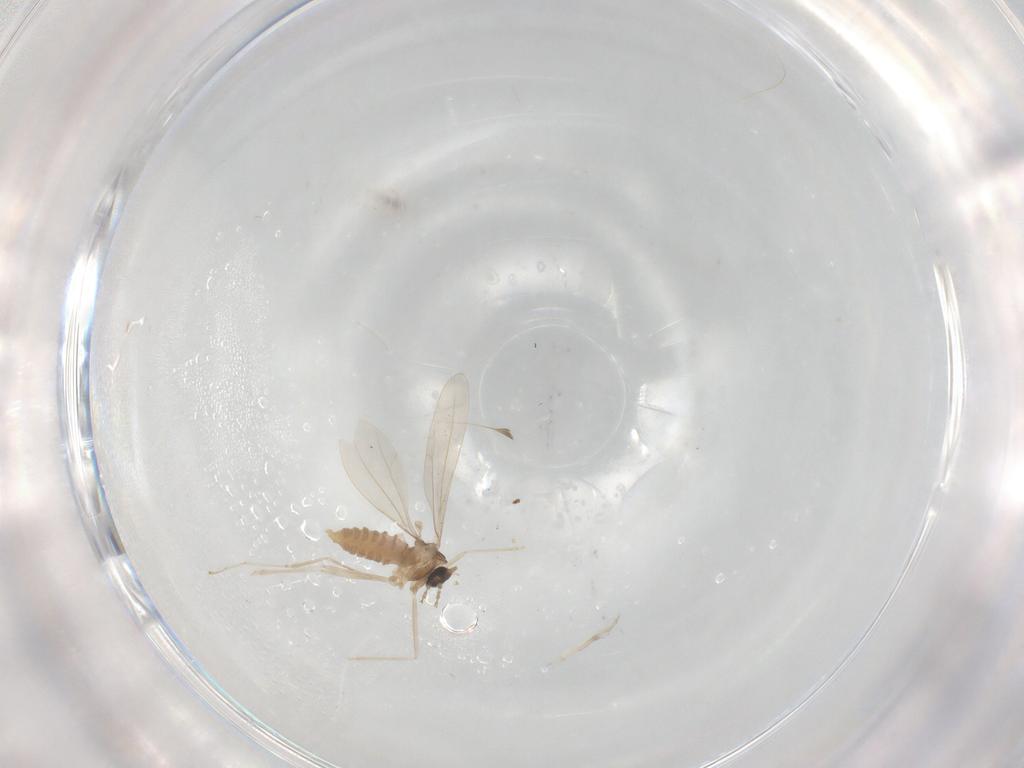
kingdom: Animalia
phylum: Arthropoda
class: Insecta
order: Diptera
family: Cecidomyiidae
